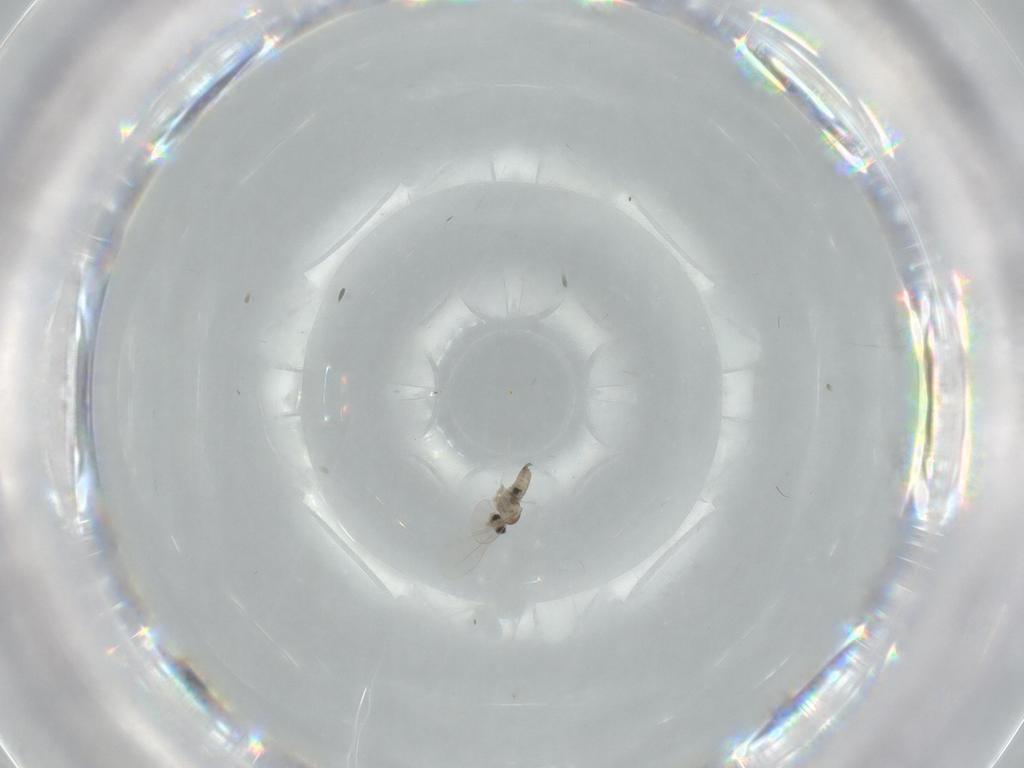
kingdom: Animalia
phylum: Arthropoda
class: Insecta
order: Diptera
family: Cecidomyiidae
